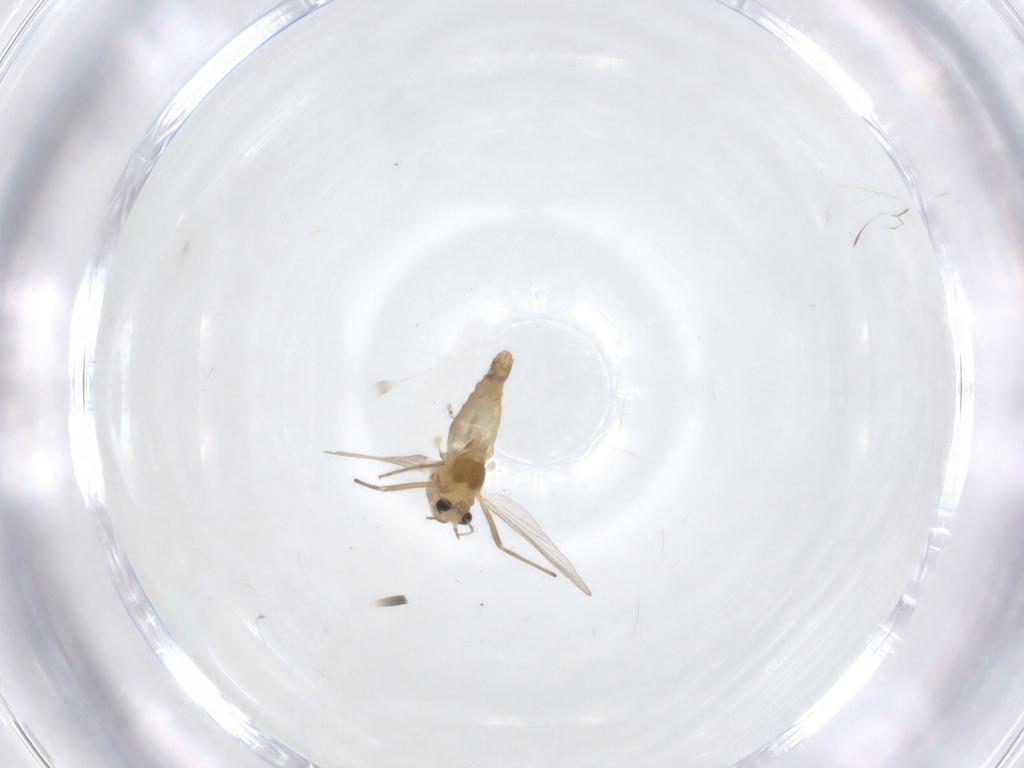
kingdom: Animalia
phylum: Arthropoda
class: Insecta
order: Diptera
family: Chironomidae
